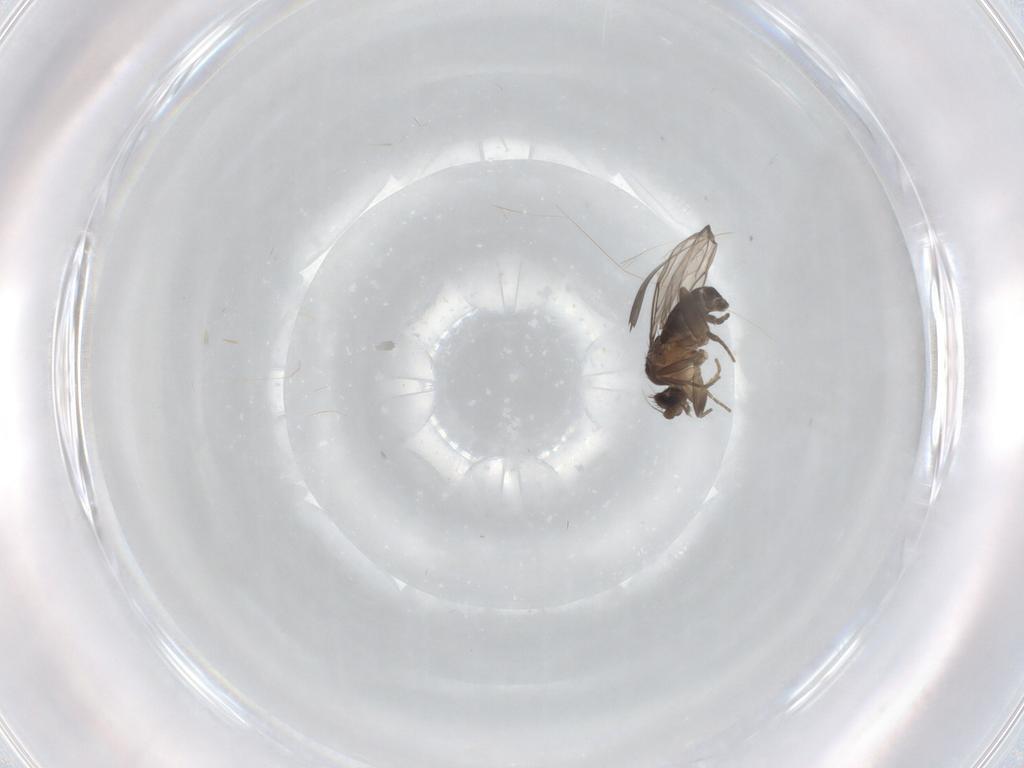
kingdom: Animalia
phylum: Arthropoda
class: Insecta
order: Diptera
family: Phoridae
